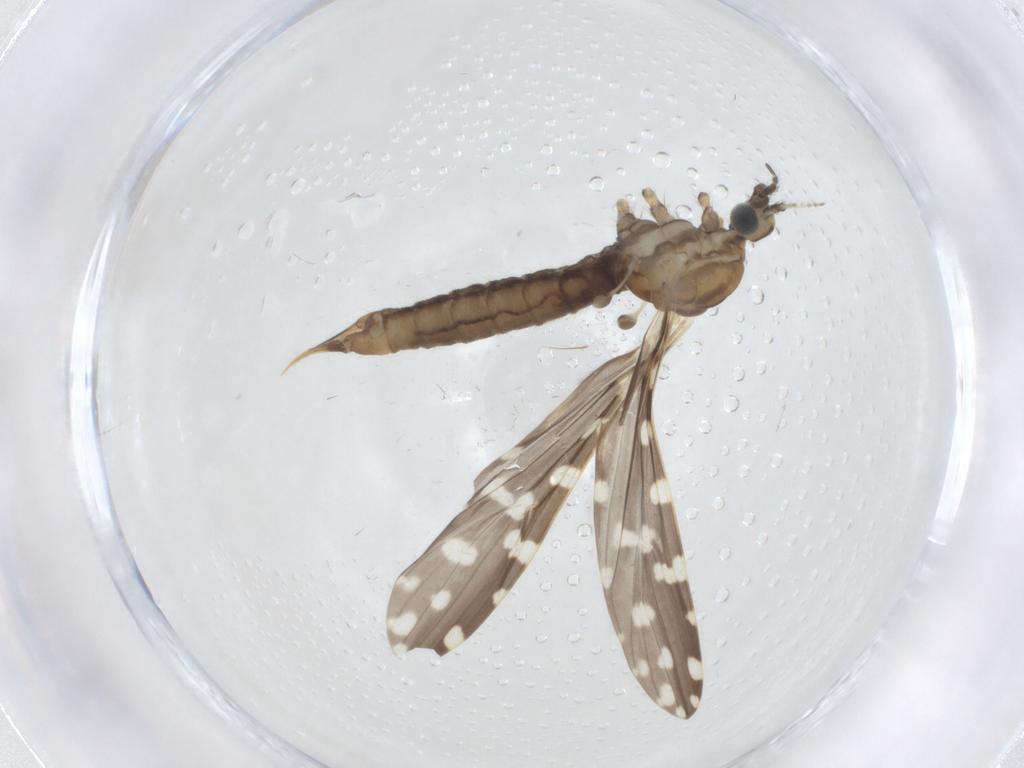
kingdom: Animalia
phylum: Arthropoda
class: Insecta
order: Diptera
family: Limoniidae
